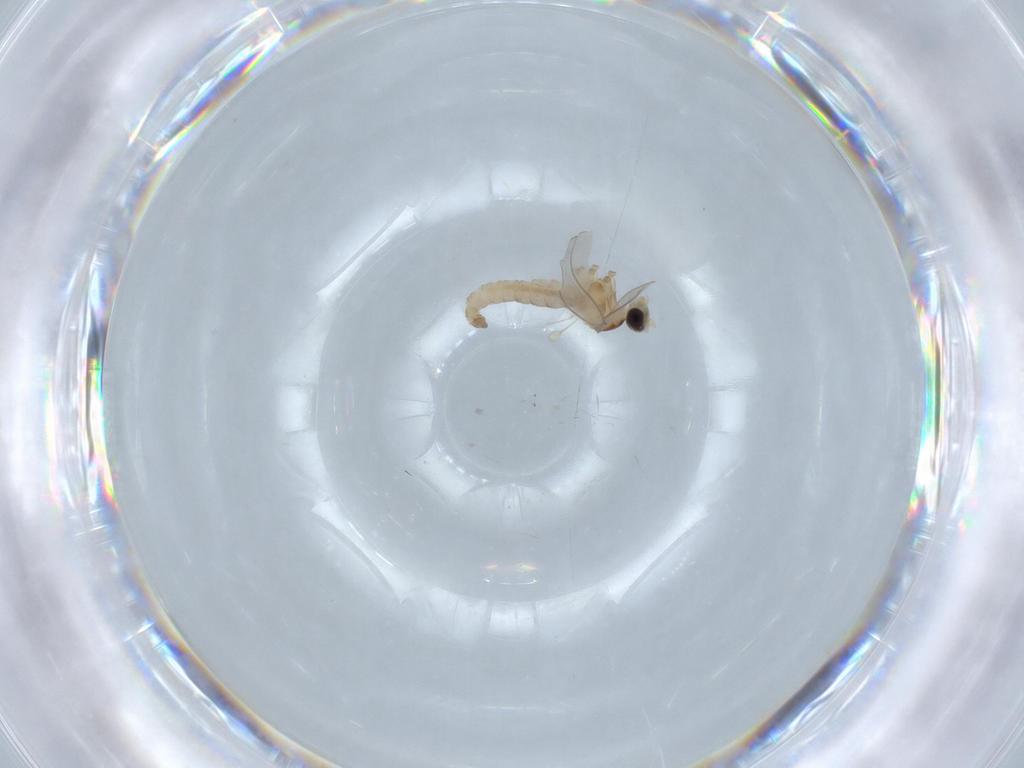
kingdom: Animalia
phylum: Arthropoda
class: Insecta
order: Diptera
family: Cecidomyiidae
